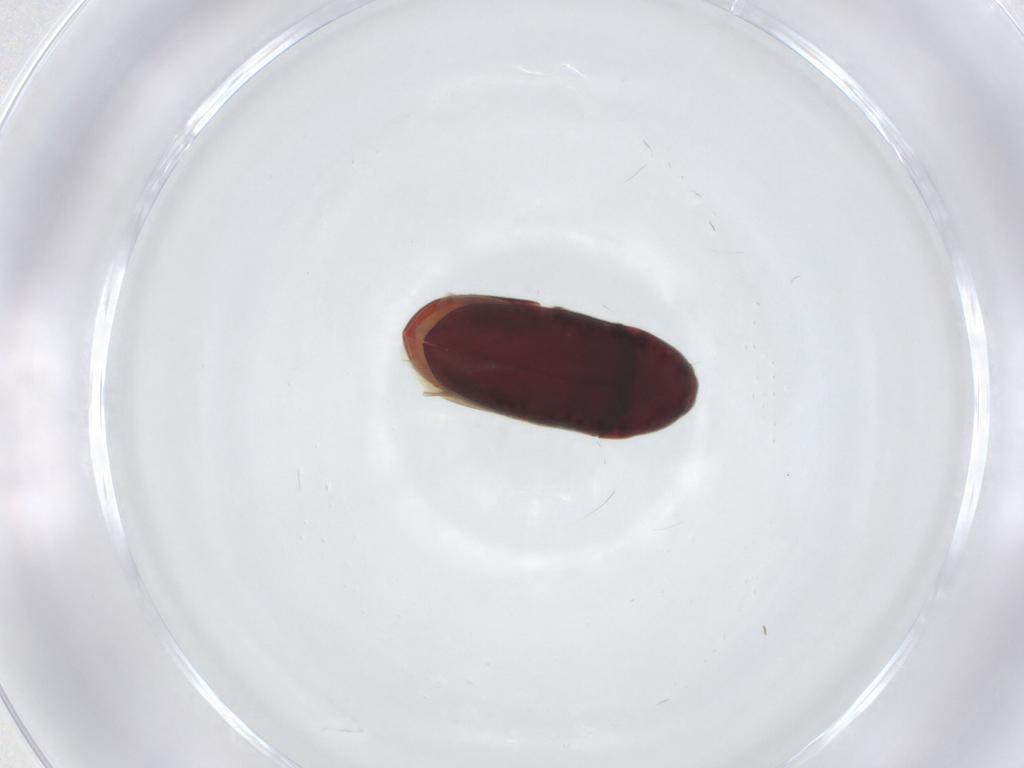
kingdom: Animalia
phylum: Arthropoda
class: Insecta
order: Coleoptera
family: Throscidae
